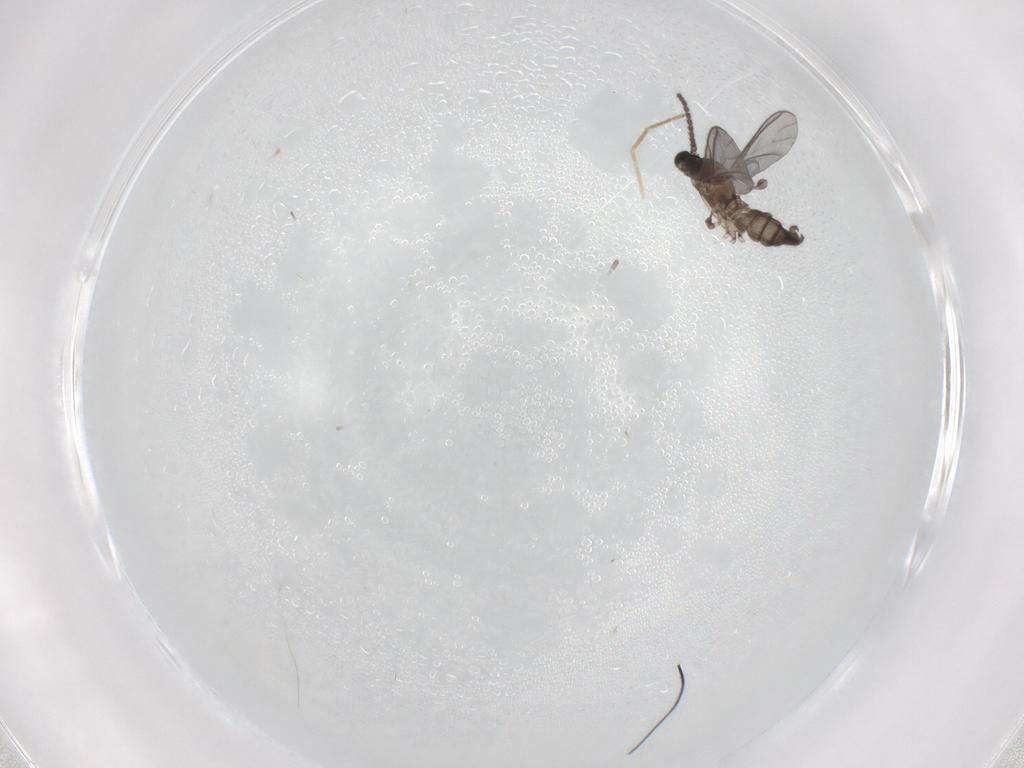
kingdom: Animalia
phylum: Arthropoda
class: Insecta
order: Diptera
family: Chironomidae
